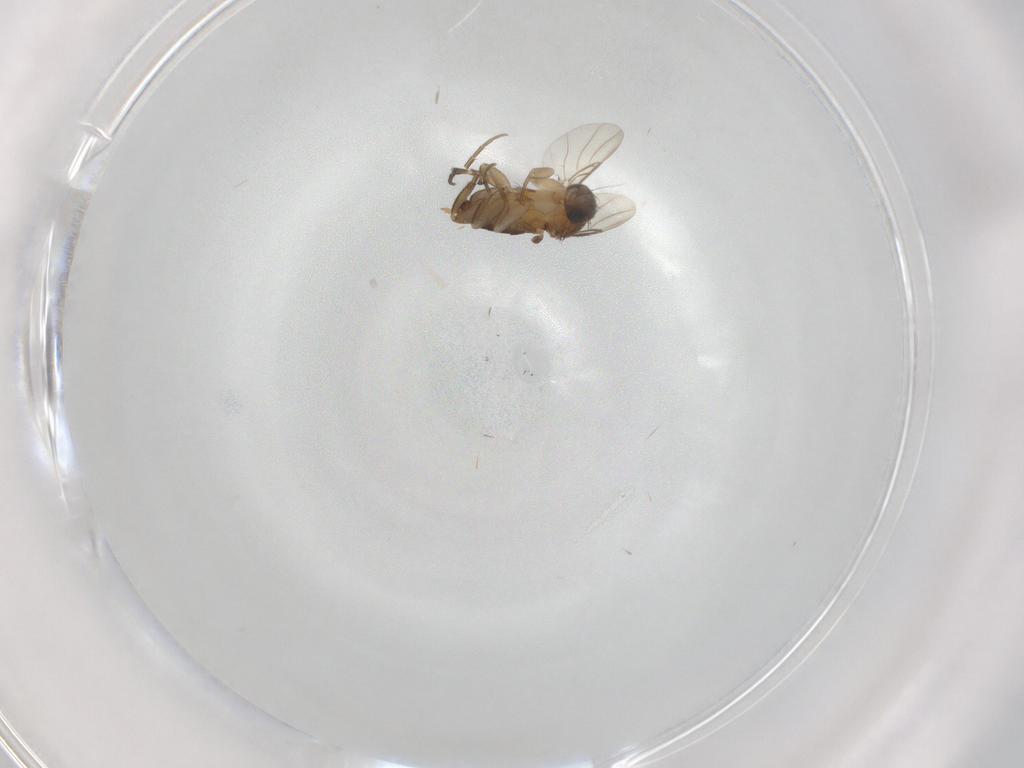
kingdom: Animalia
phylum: Arthropoda
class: Insecta
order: Diptera
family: Phoridae
